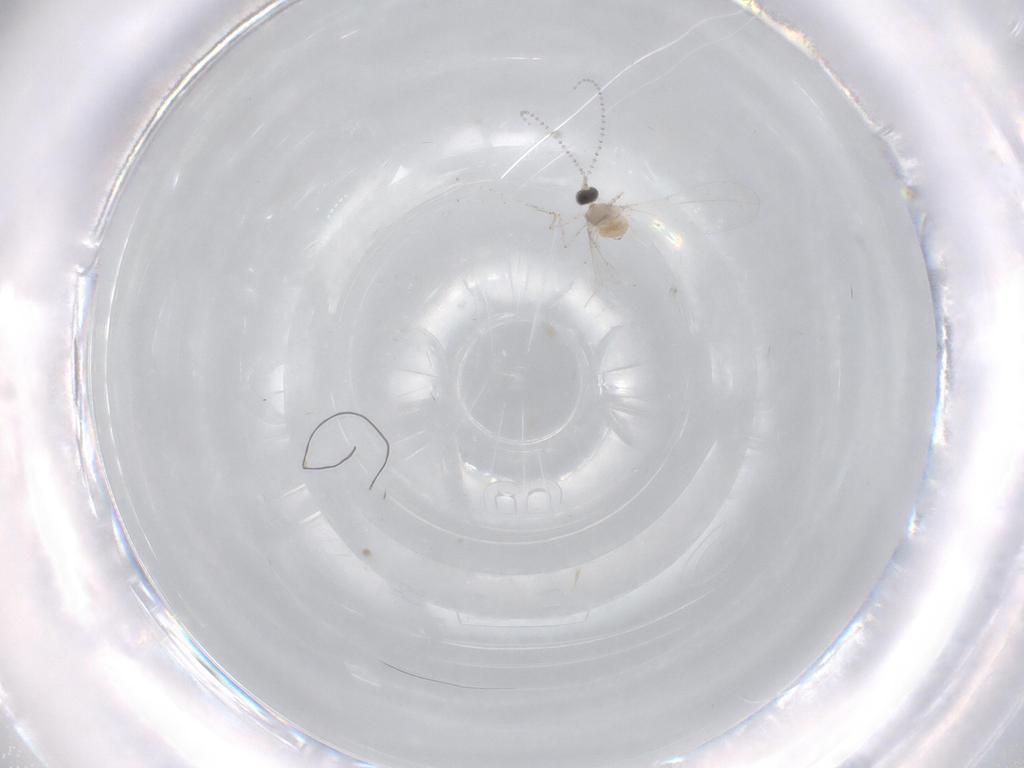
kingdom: Animalia
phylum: Arthropoda
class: Insecta
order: Diptera
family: Cecidomyiidae
